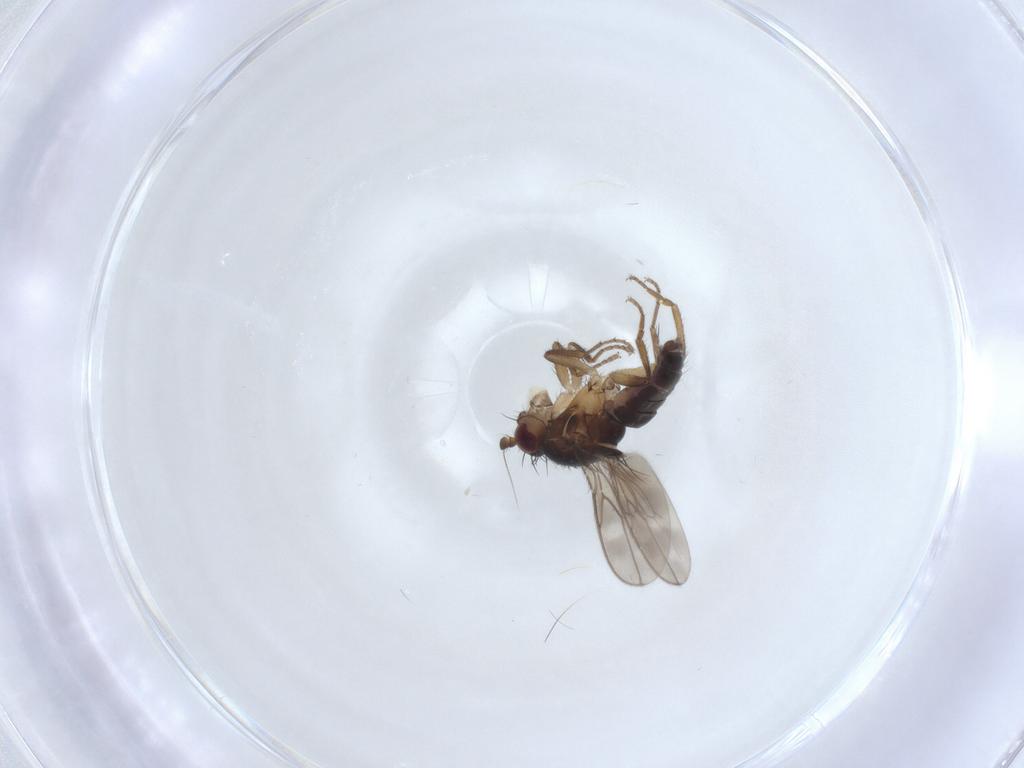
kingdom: Animalia
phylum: Arthropoda
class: Insecta
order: Diptera
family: Sphaeroceridae
